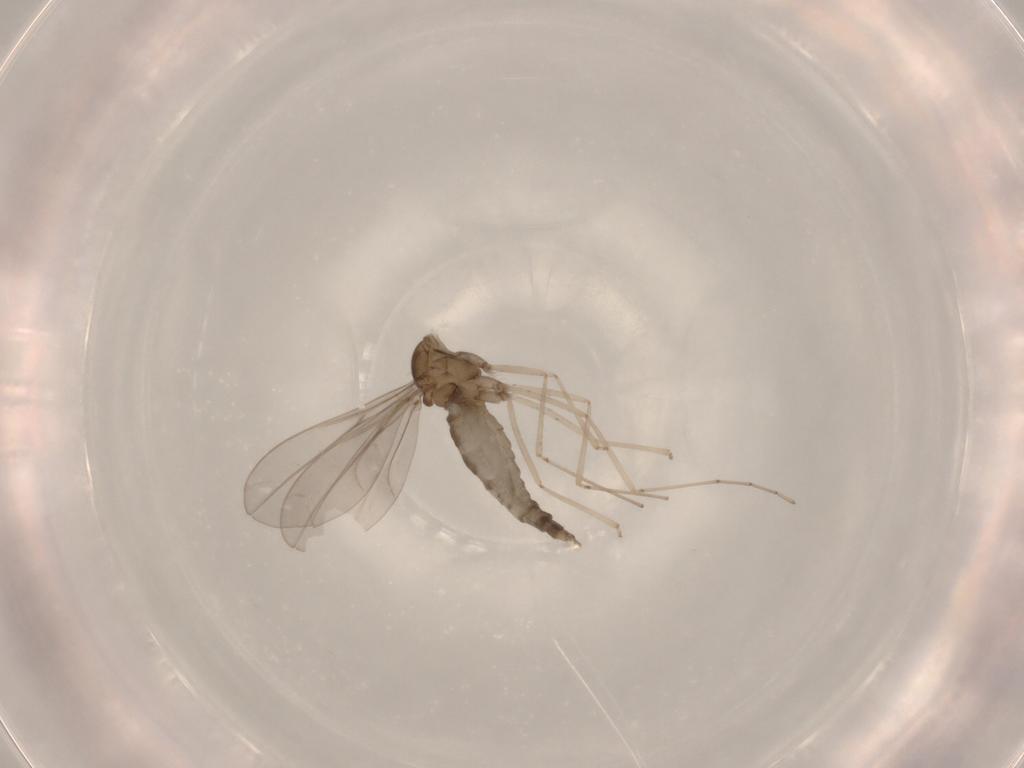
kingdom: Animalia
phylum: Arthropoda
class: Insecta
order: Diptera
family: Cecidomyiidae
